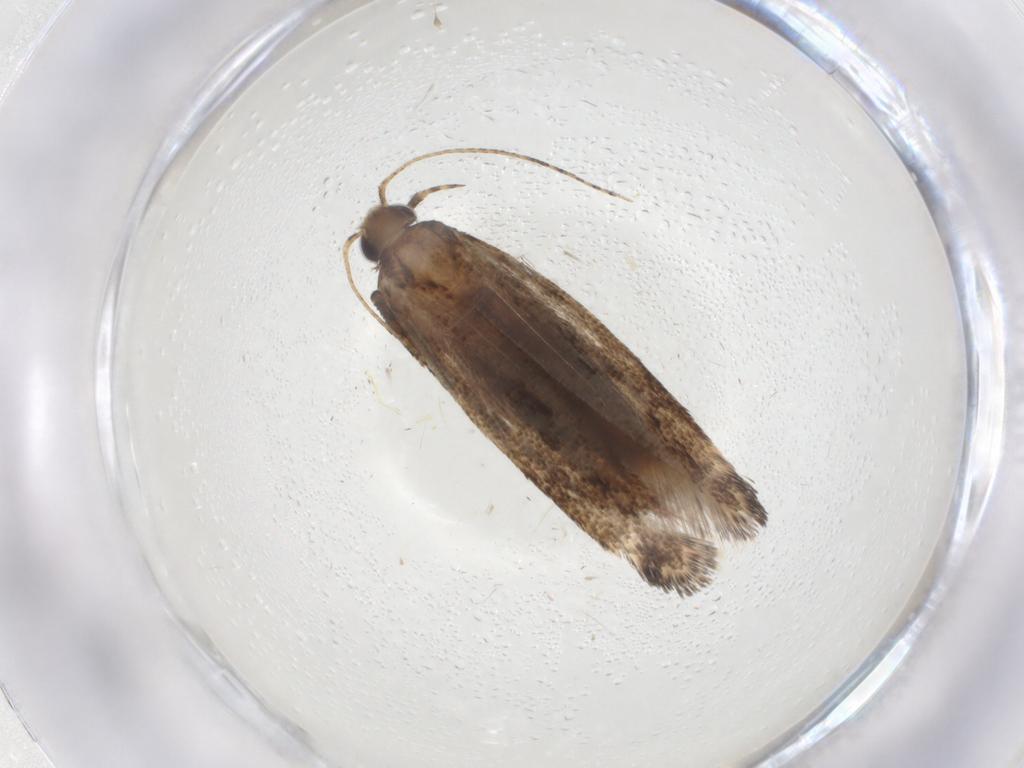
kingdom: Animalia
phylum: Arthropoda
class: Insecta
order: Lepidoptera
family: Gelechiidae
